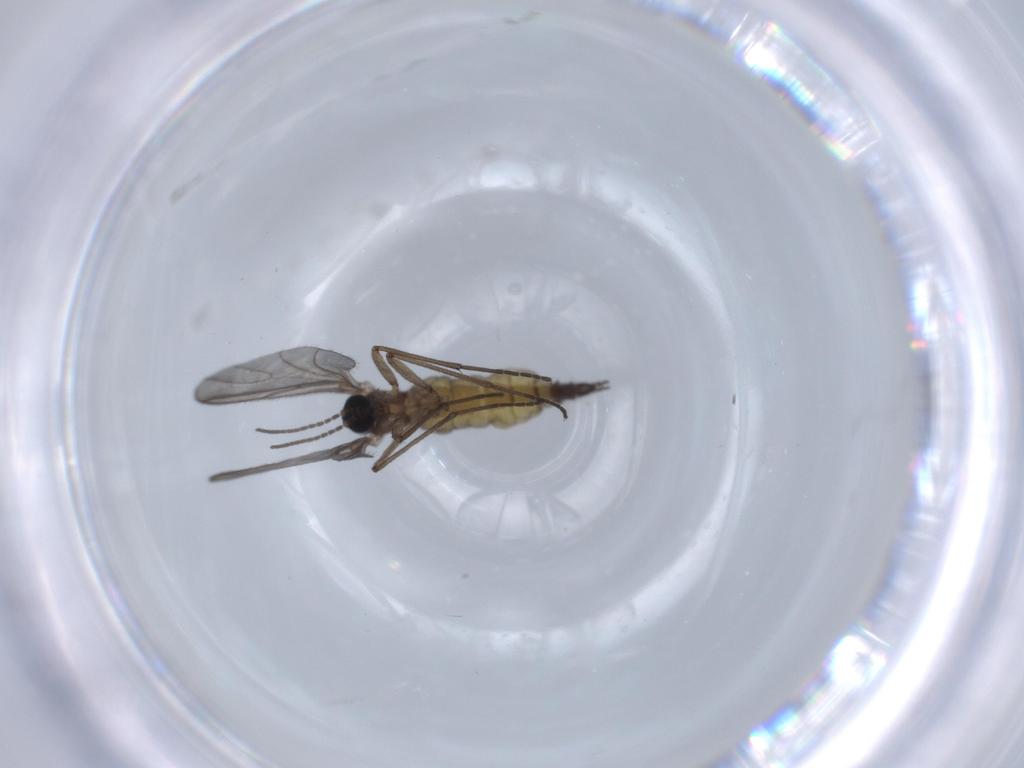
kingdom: Animalia
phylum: Arthropoda
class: Insecta
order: Diptera
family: Sciaridae
